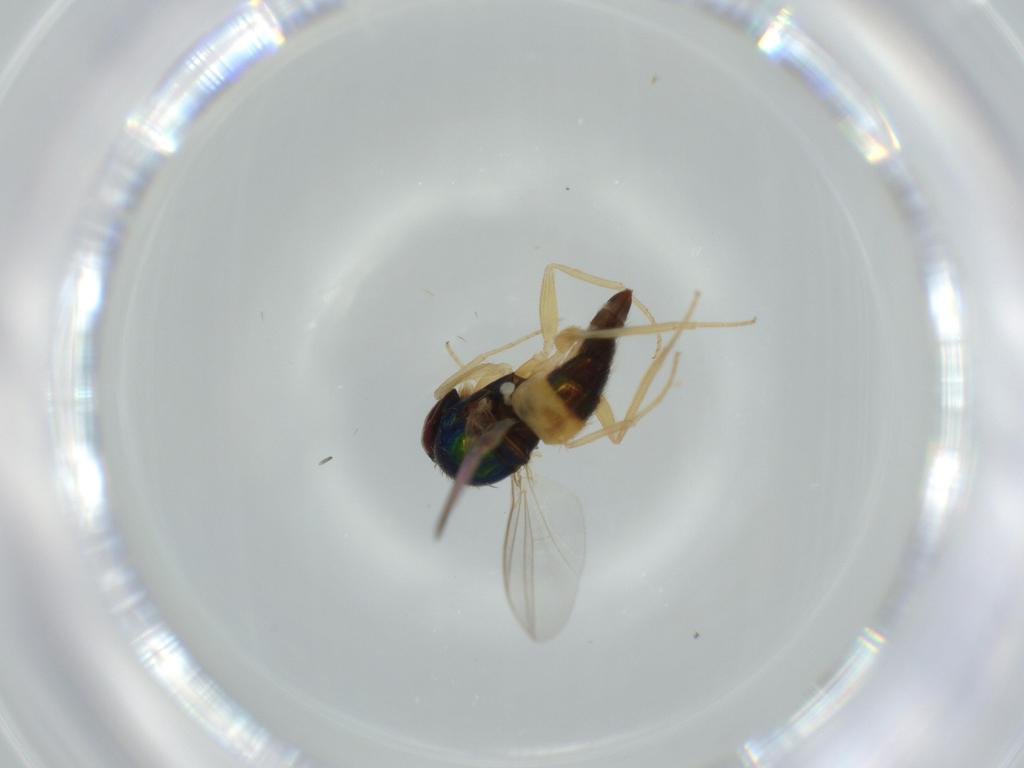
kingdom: Animalia
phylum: Arthropoda
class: Insecta
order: Diptera
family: Dolichopodidae
